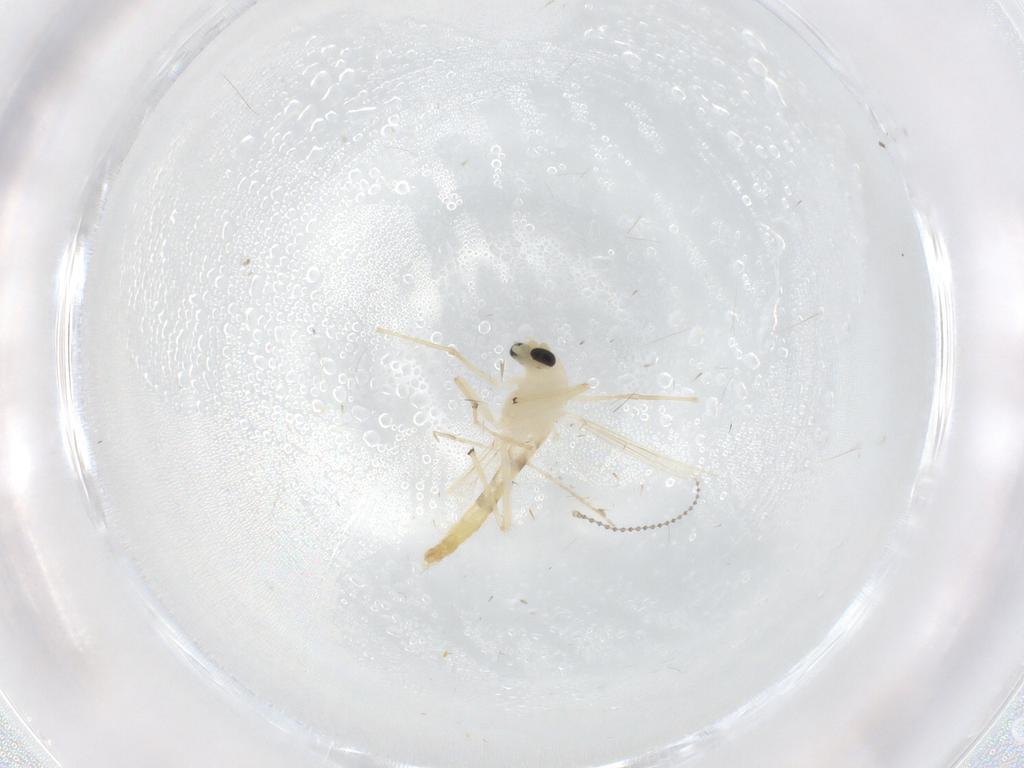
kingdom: Animalia
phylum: Arthropoda
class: Insecta
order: Diptera
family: Chironomidae
